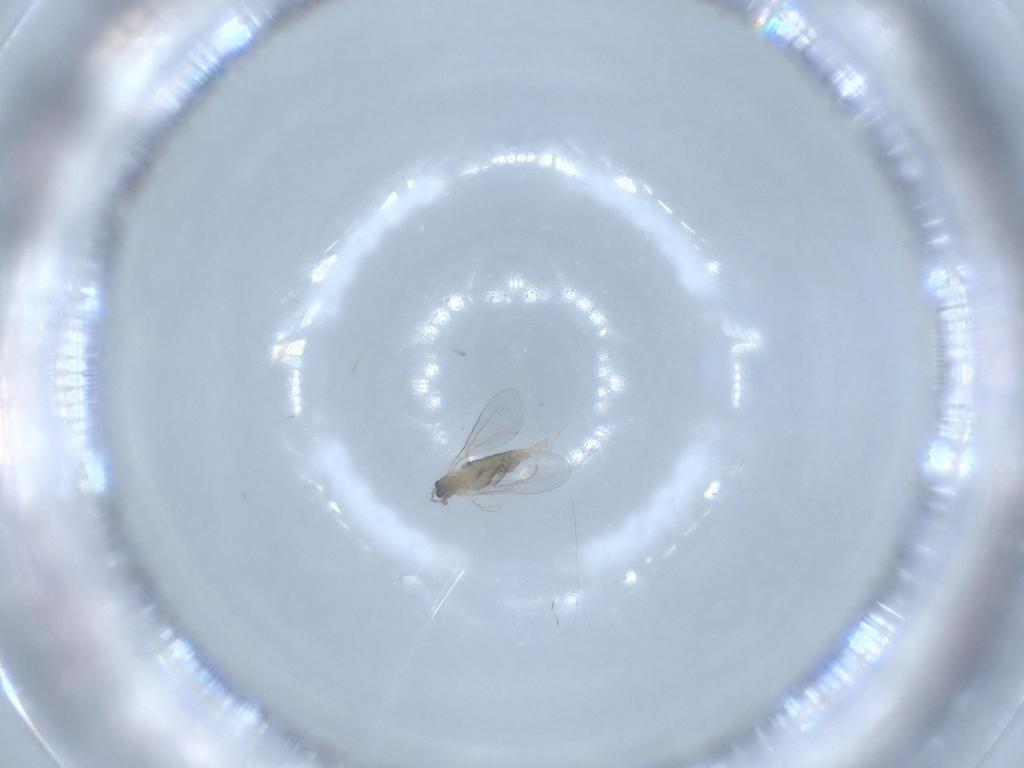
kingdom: Animalia
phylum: Arthropoda
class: Insecta
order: Diptera
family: Cecidomyiidae
